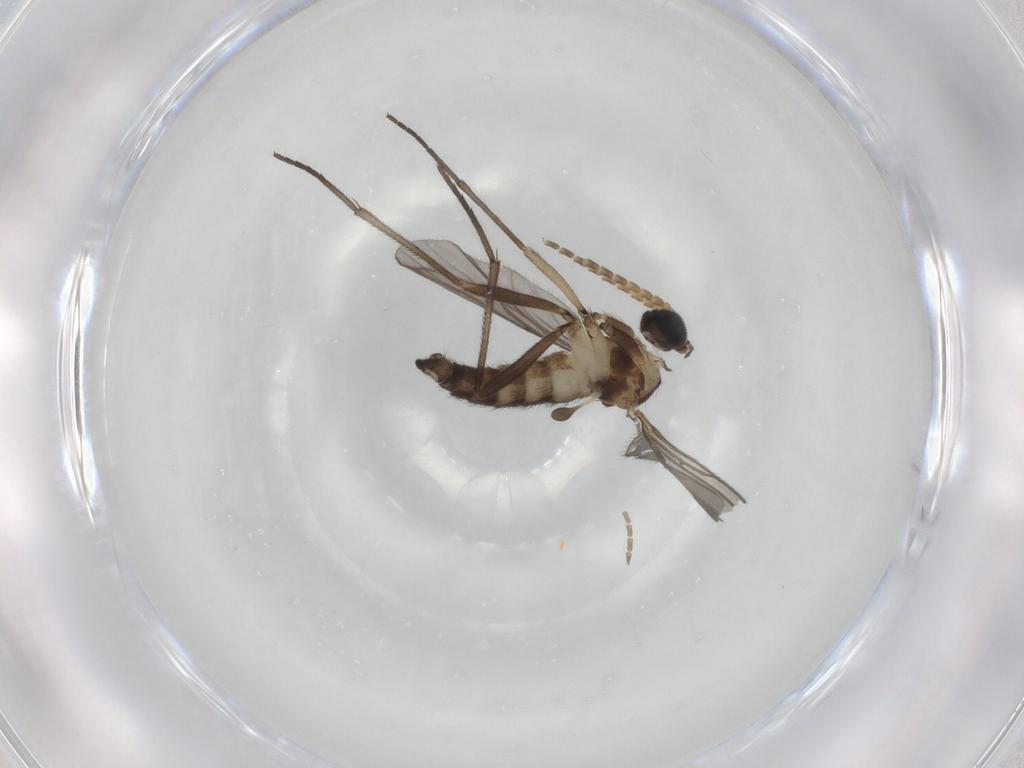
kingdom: Animalia
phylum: Arthropoda
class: Insecta
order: Diptera
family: Sciaridae
